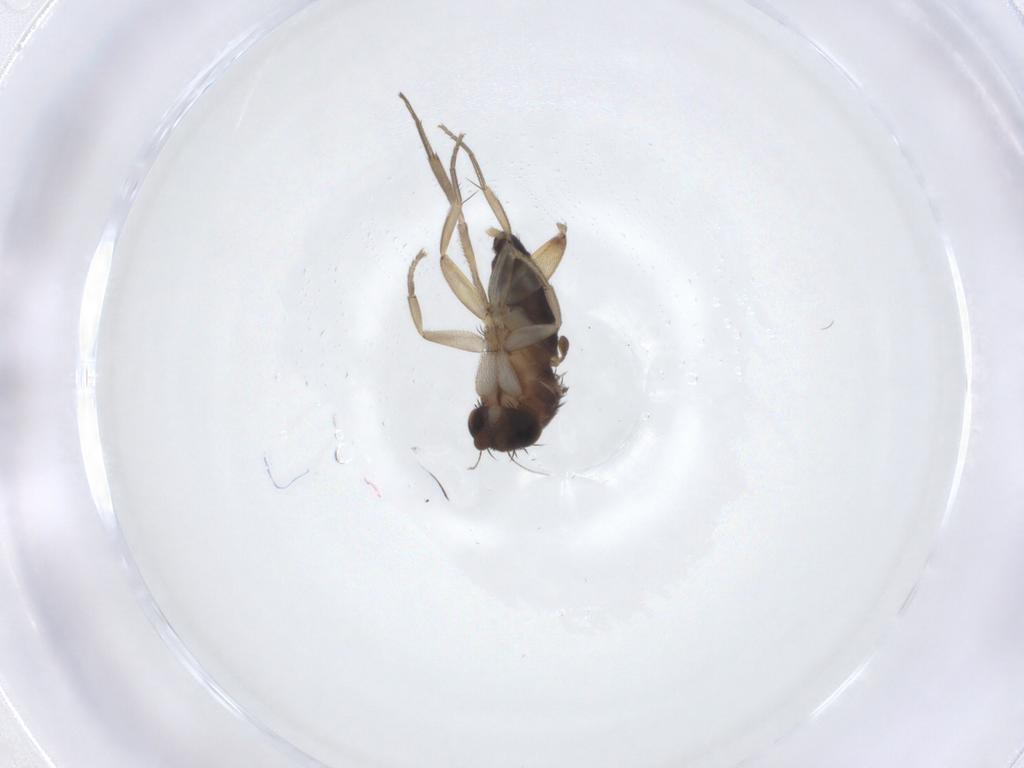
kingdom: Animalia
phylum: Arthropoda
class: Insecta
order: Diptera
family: Phoridae
